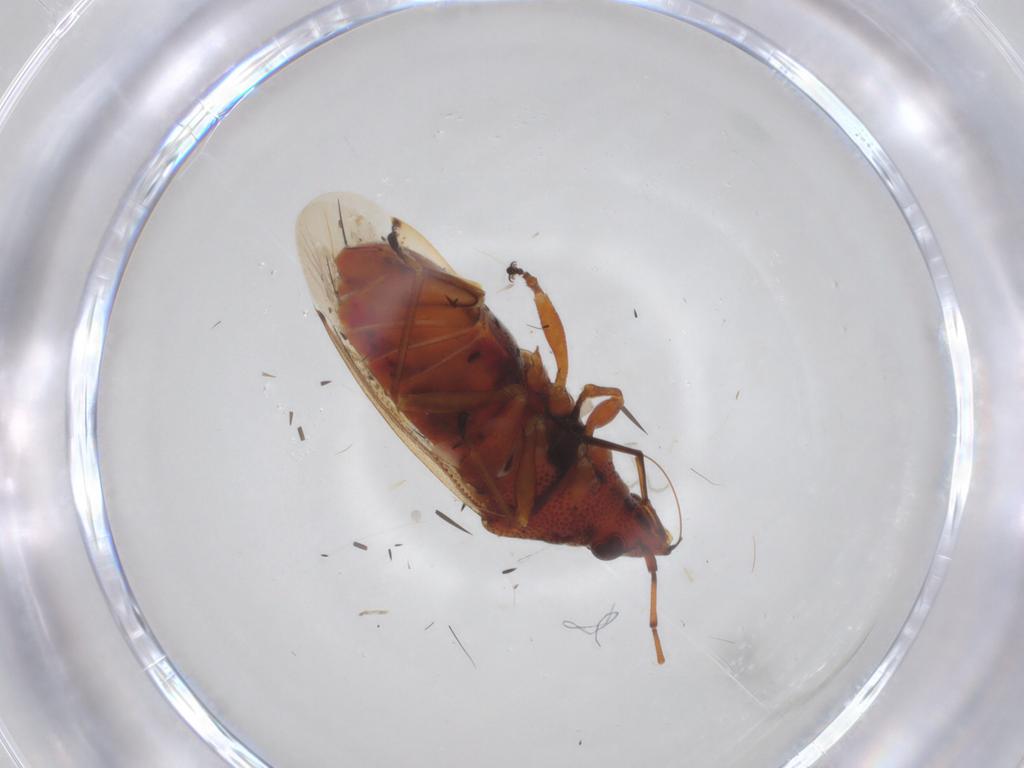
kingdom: Animalia
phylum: Arthropoda
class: Insecta
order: Hemiptera
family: Lygaeidae
